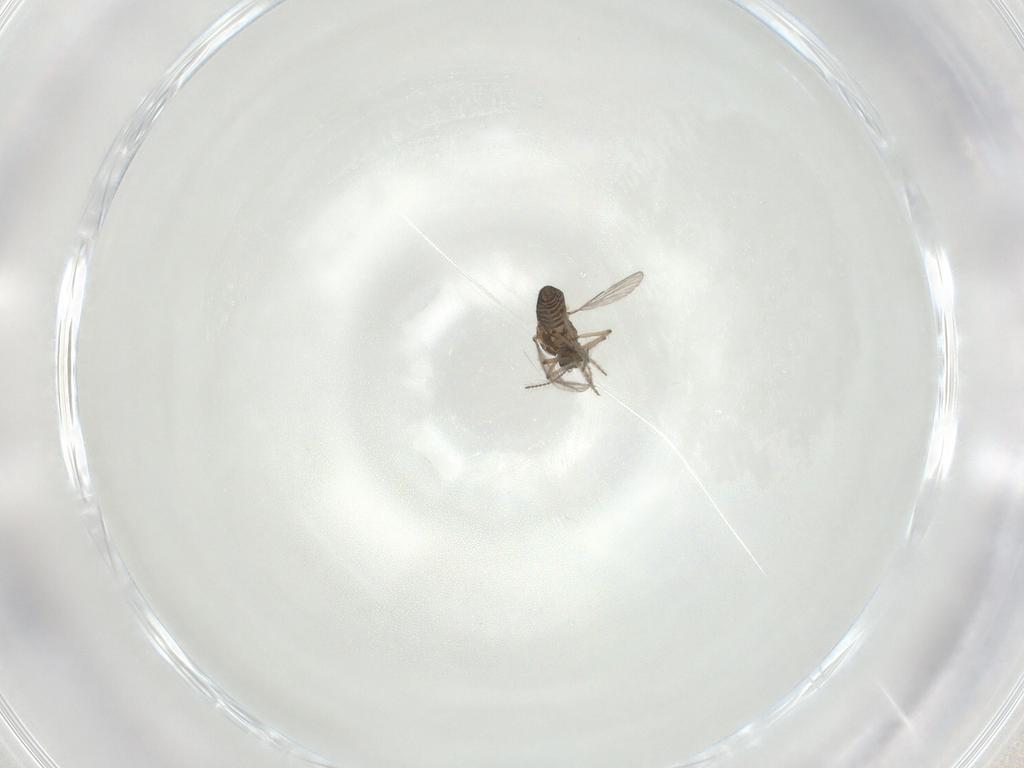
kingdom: Animalia
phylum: Arthropoda
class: Insecta
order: Diptera
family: Ceratopogonidae
